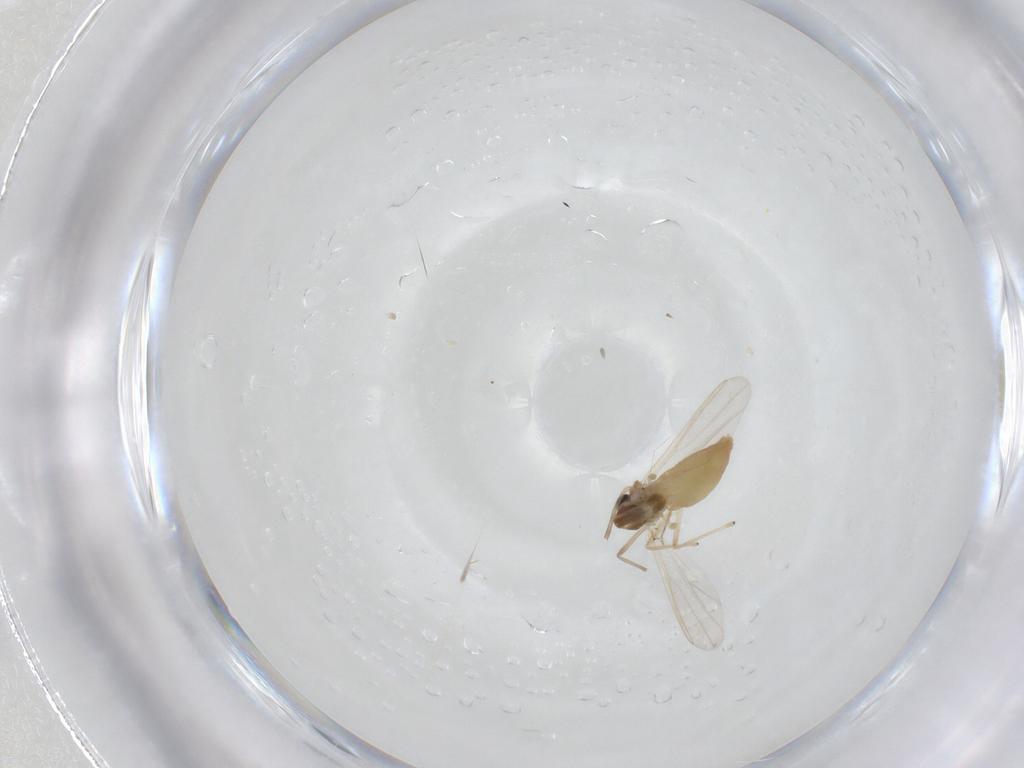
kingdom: Animalia
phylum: Arthropoda
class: Insecta
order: Diptera
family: Chironomidae
